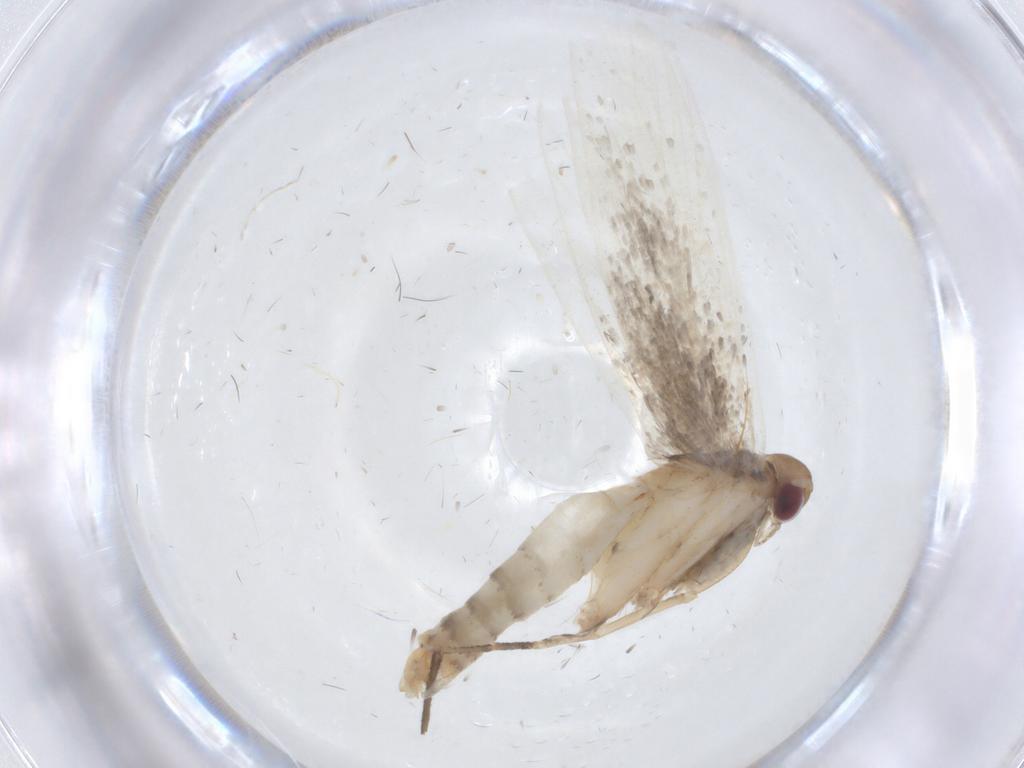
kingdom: Animalia
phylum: Arthropoda
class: Insecta
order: Lepidoptera
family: Gelechiidae
